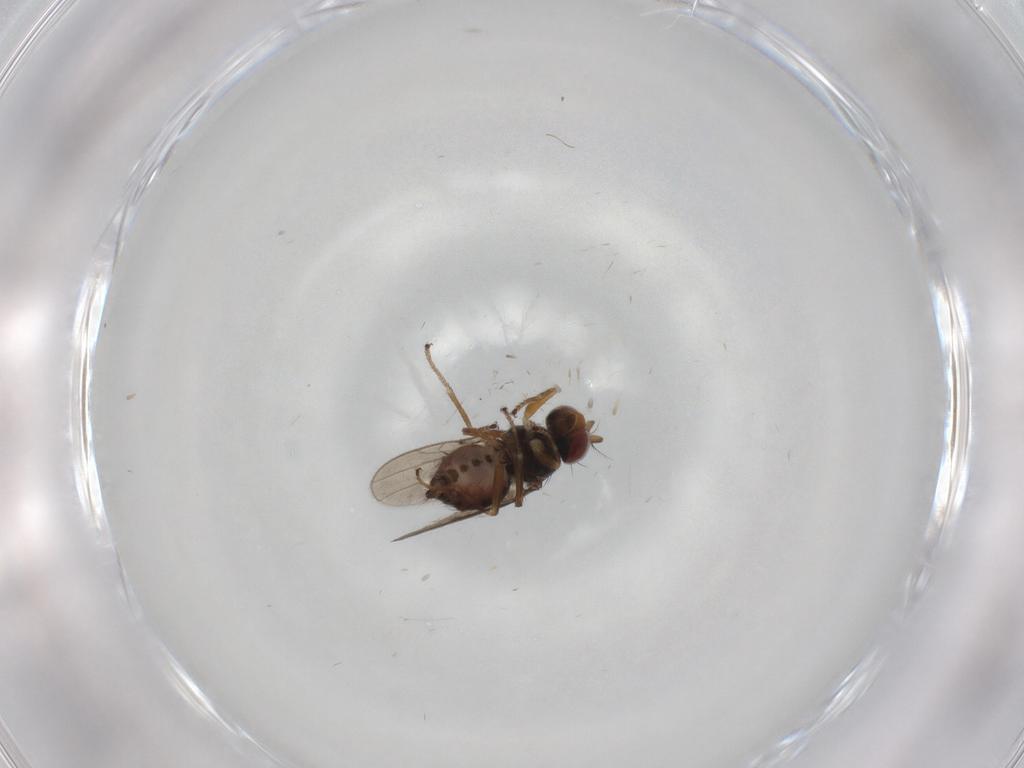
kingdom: Animalia
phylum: Arthropoda
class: Insecta
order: Diptera
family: Ephydridae
